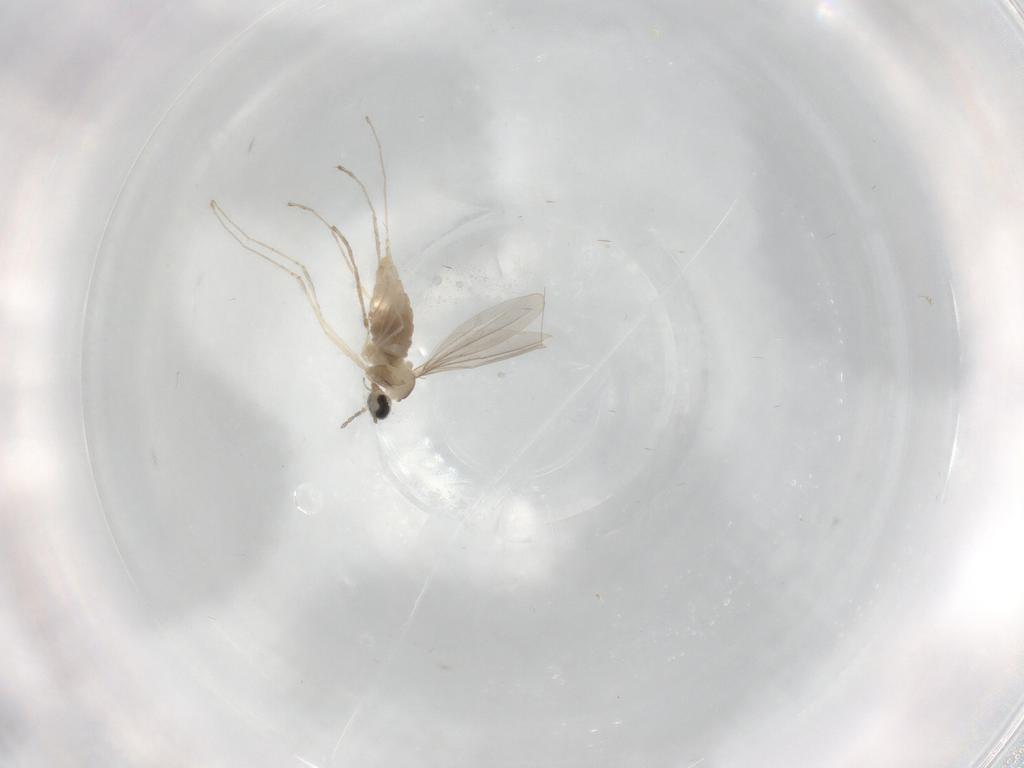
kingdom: Animalia
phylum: Arthropoda
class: Insecta
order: Diptera
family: Cecidomyiidae
